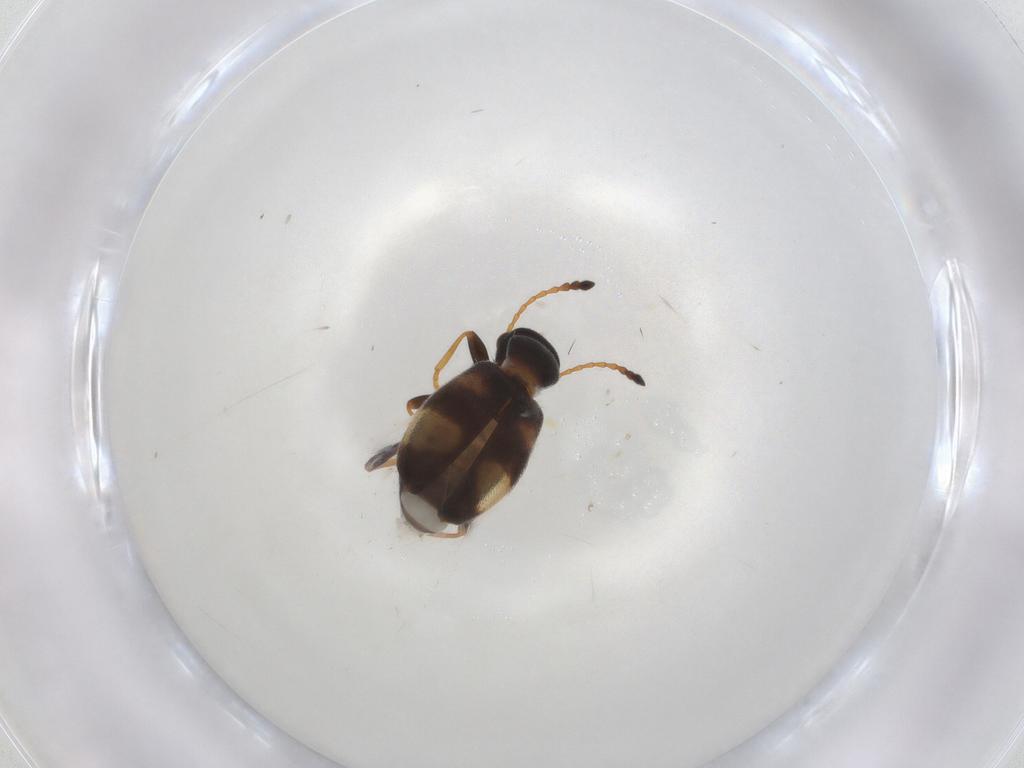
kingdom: Animalia
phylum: Arthropoda
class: Insecta
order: Coleoptera
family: Anthicidae
